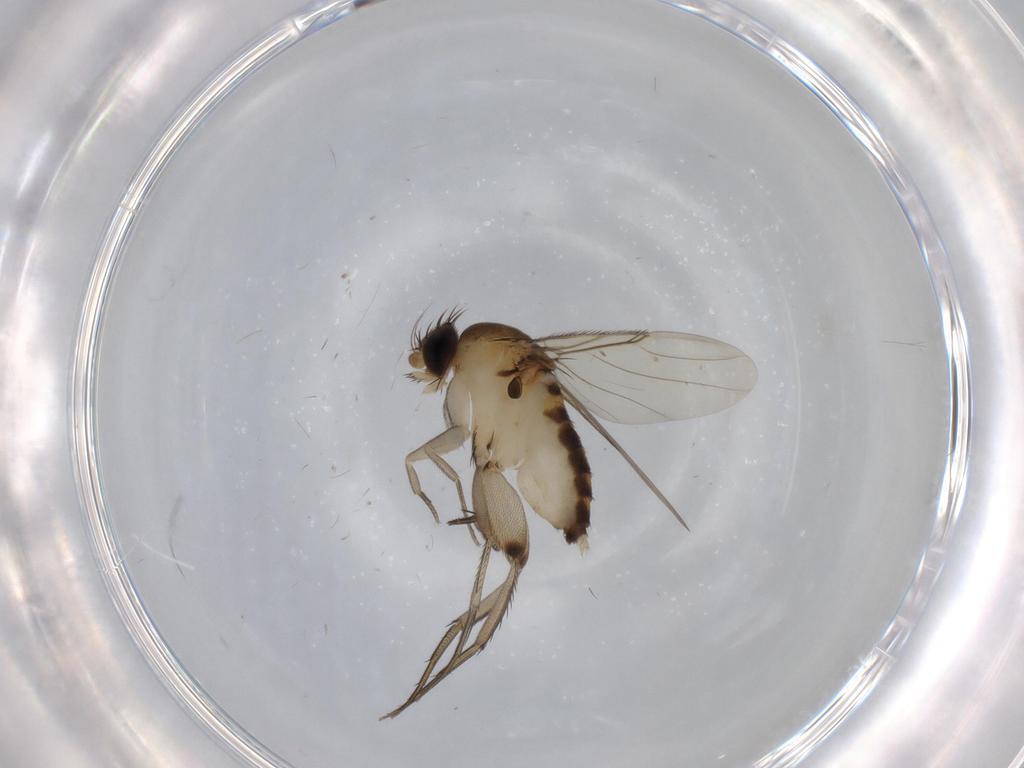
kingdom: Animalia
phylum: Arthropoda
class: Insecta
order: Diptera
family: Phoridae
